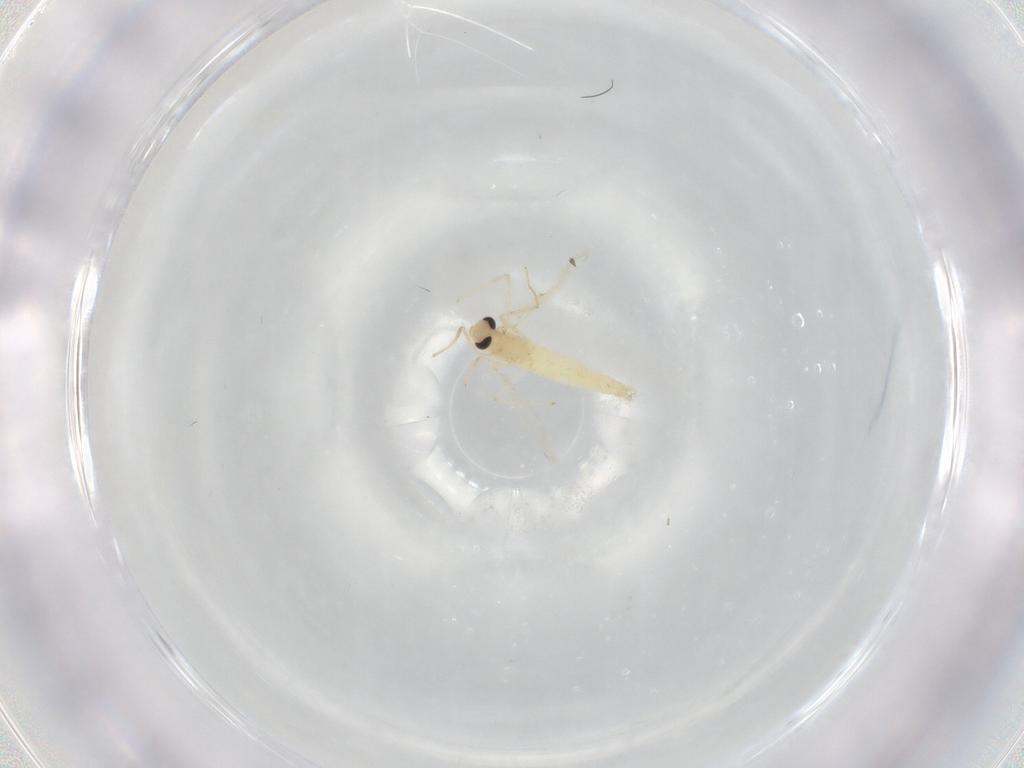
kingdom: Animalia
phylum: Arthropoda
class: Insecta
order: Diptera
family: Chironomidae
